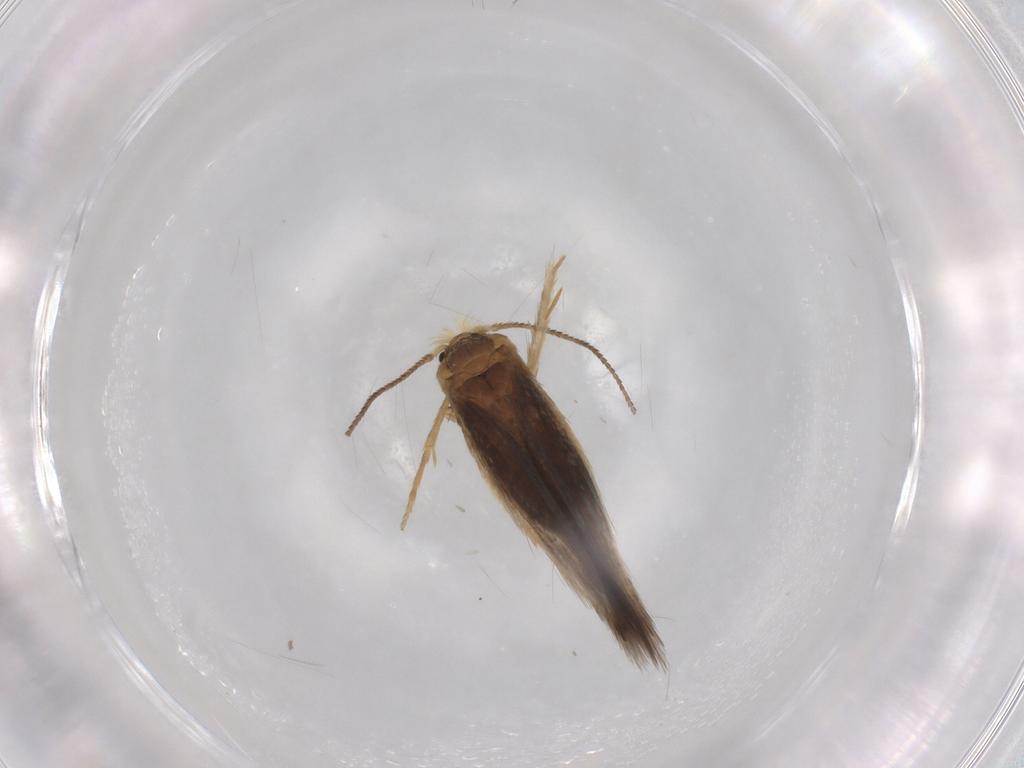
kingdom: Animalia
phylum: Arthropoda
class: Insecta
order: Lepidoptera
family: Nepticulidae
